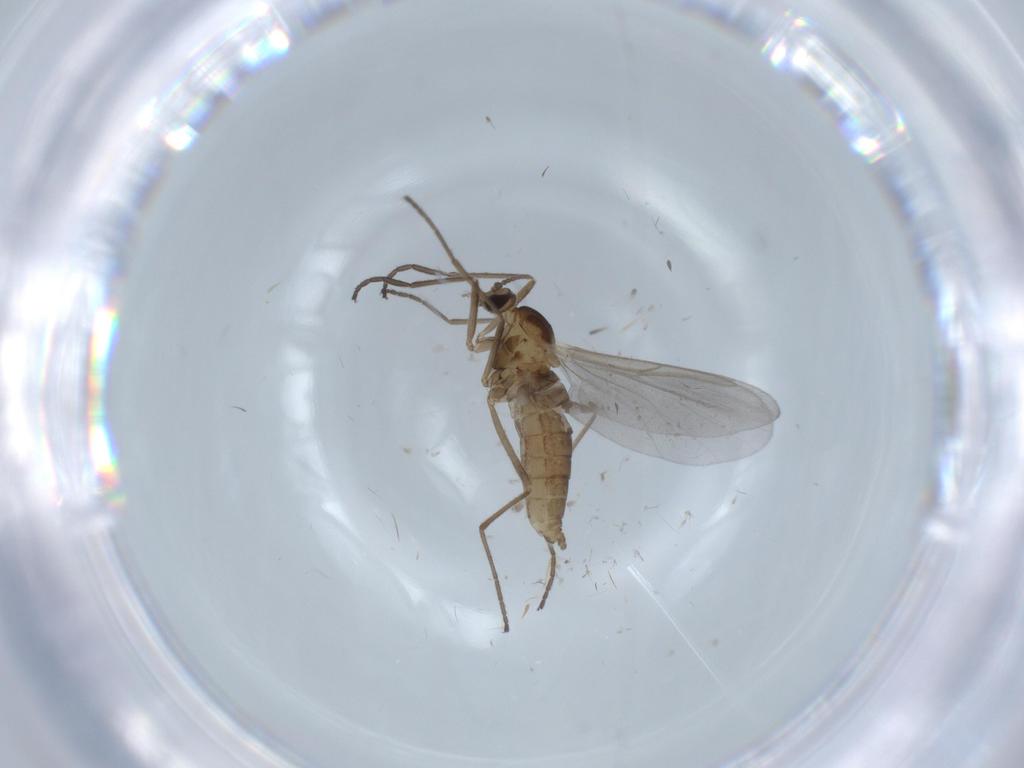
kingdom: Animalia
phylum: Arthropoda
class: Insecta
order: Diptera
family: Cecidomyiidae
